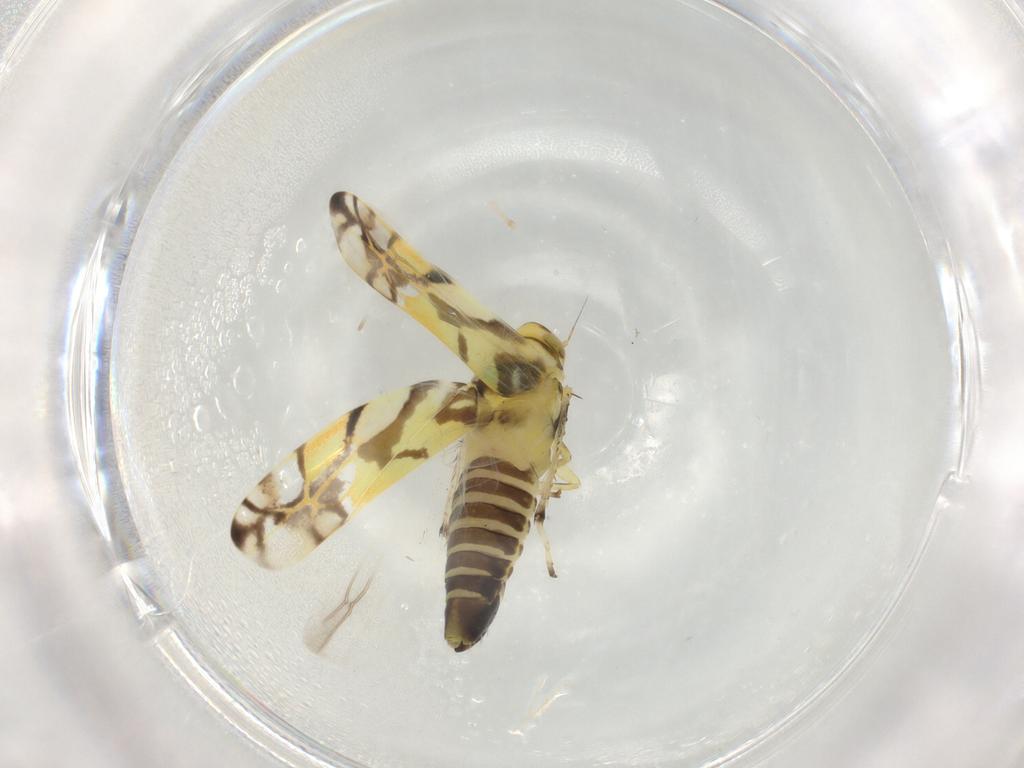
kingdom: Animalia
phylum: Arthropoda
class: Insecta
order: Hemiptera
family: Cicadellidae
